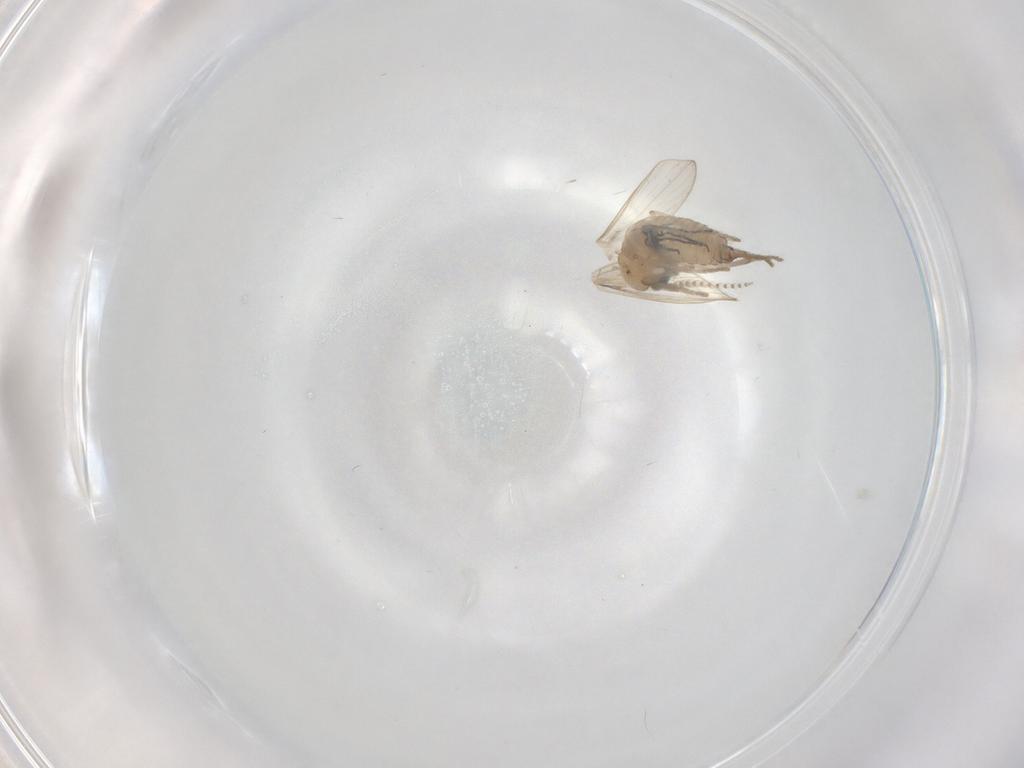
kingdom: Animalia
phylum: Arthropoda
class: Insecta
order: Diptera
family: Psychodidae
